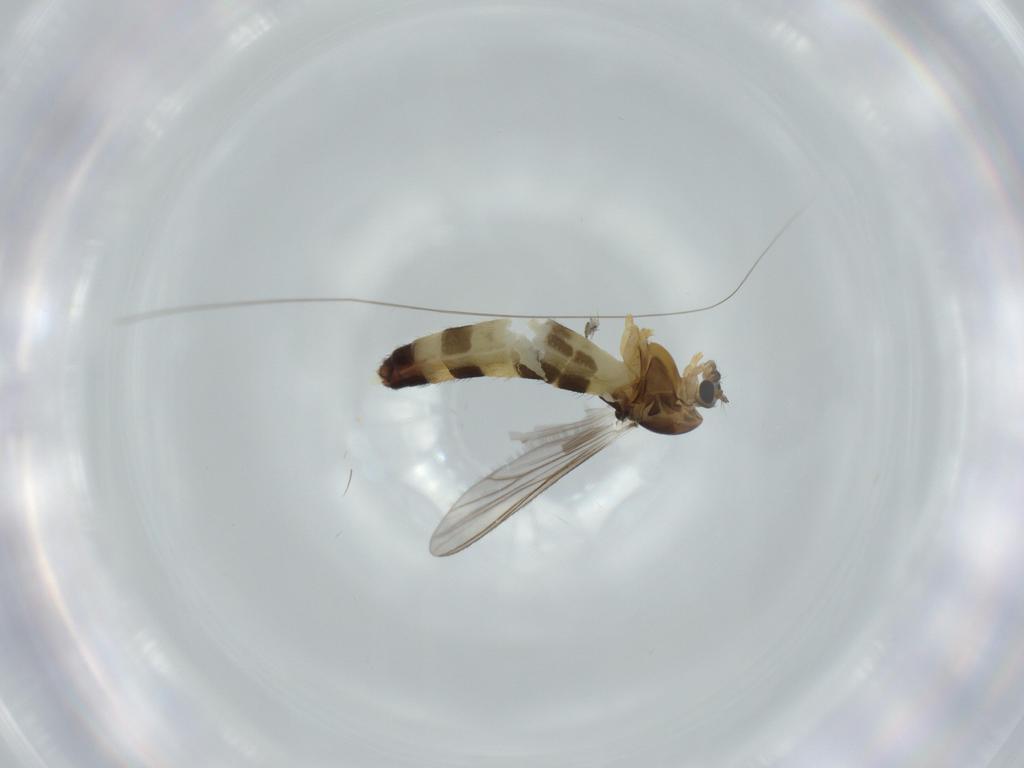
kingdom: Animalia
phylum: Arthropoda
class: Insecta
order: Diptera
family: Chironomidae
